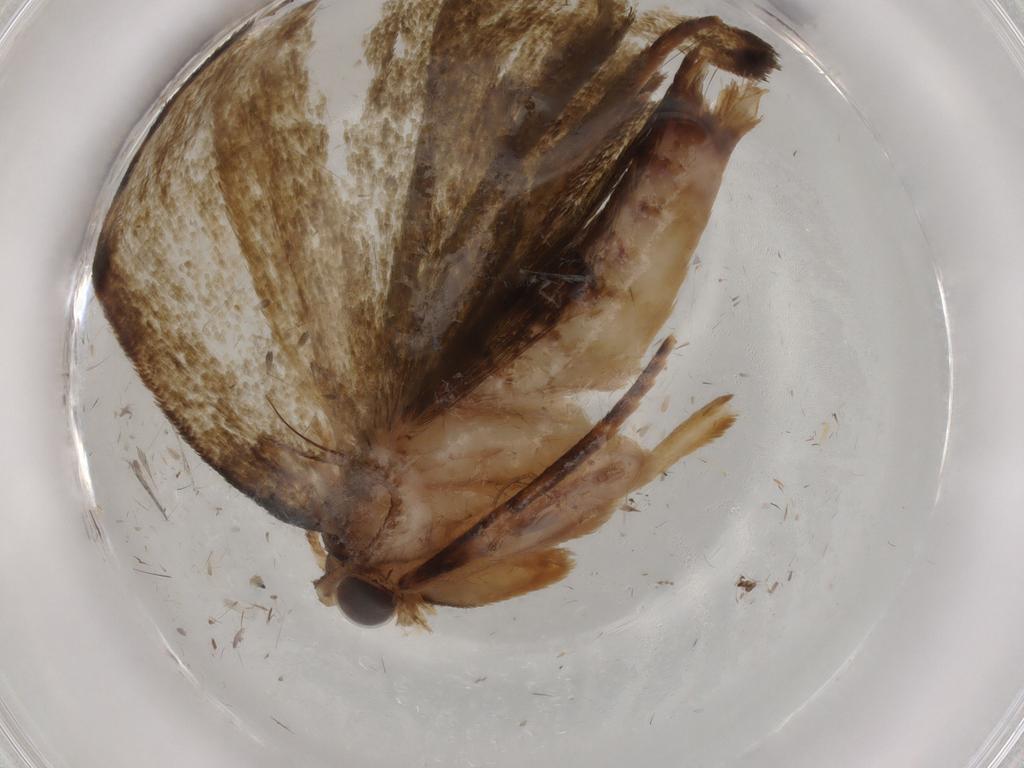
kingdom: Animalia
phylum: Arthropoda
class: Insecta
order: Lepidoptera
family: Geometridae
